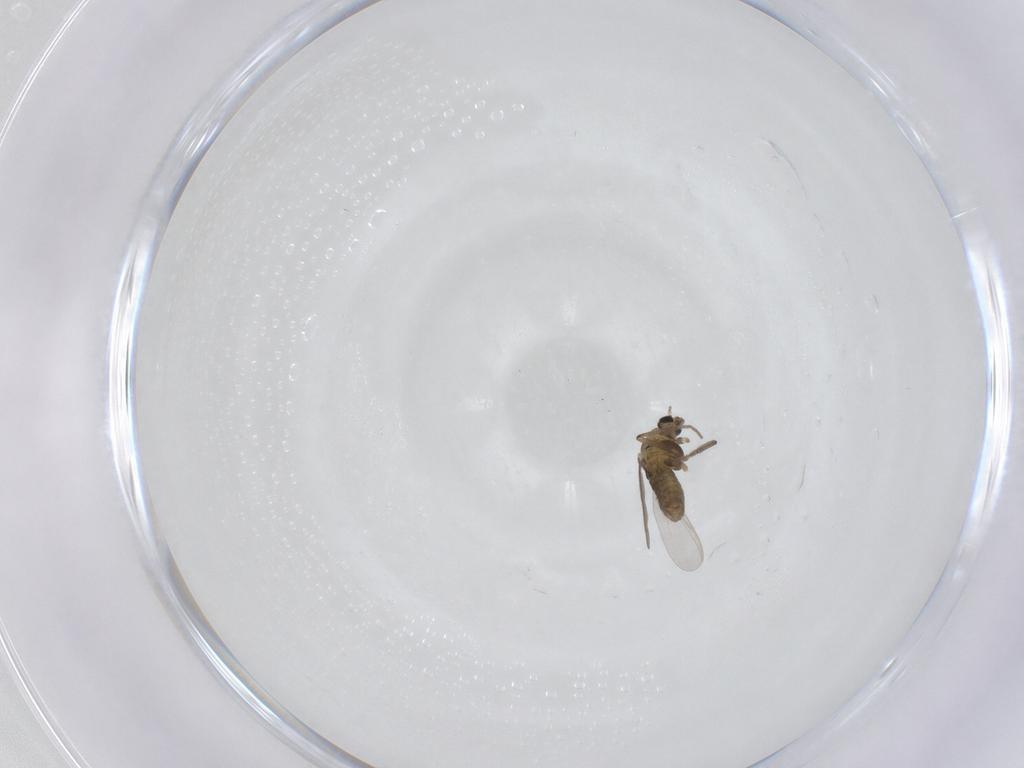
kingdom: Animalia
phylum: Arthropoda
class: Insecta
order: Diptera
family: Chironomidae
